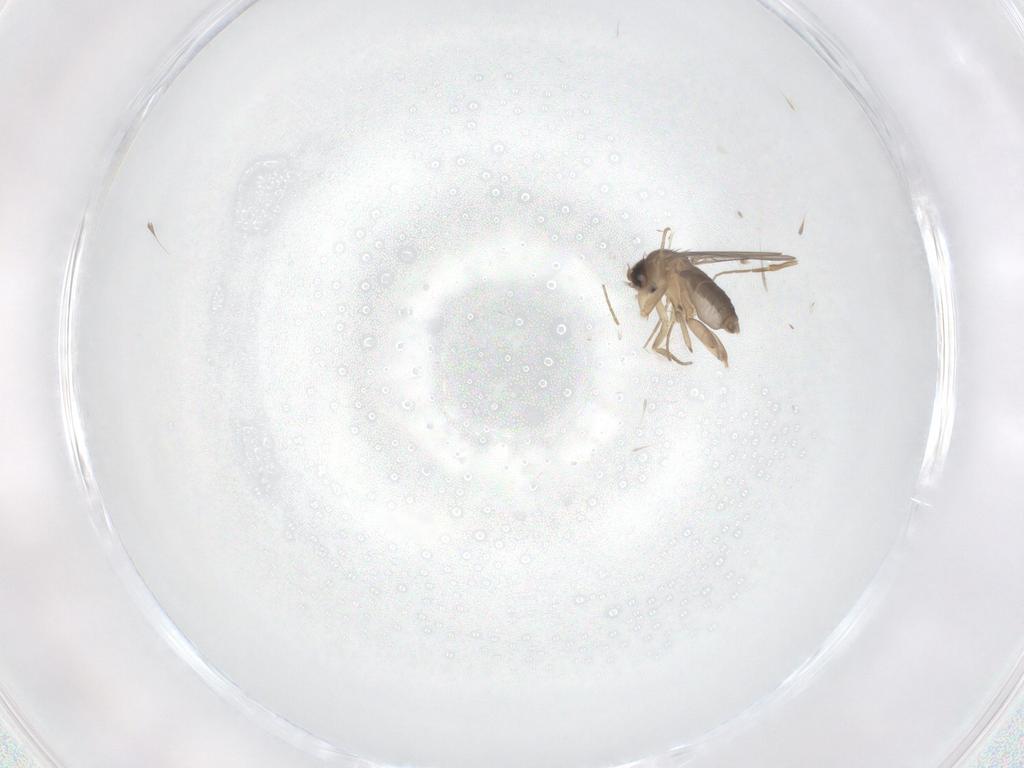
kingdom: Animalia
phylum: Arthropoda
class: Insecta
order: Diptera
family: Phoridae
